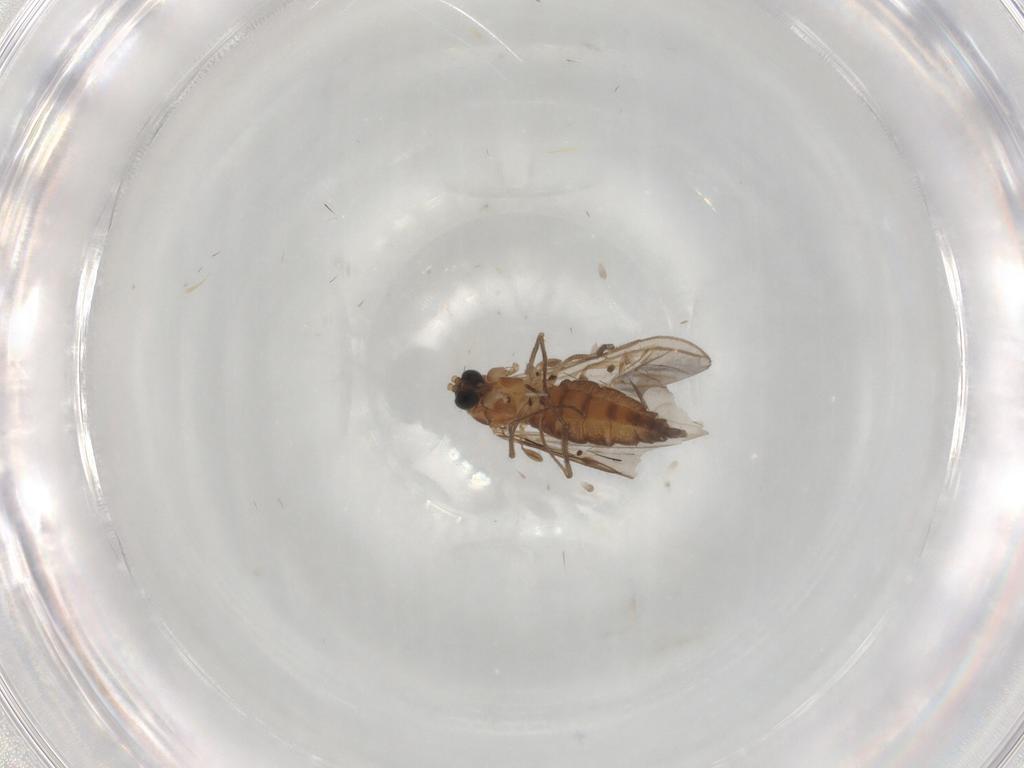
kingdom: Animalia
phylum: Arthropoda
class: Insecta
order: Diptera
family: Sciaridae
